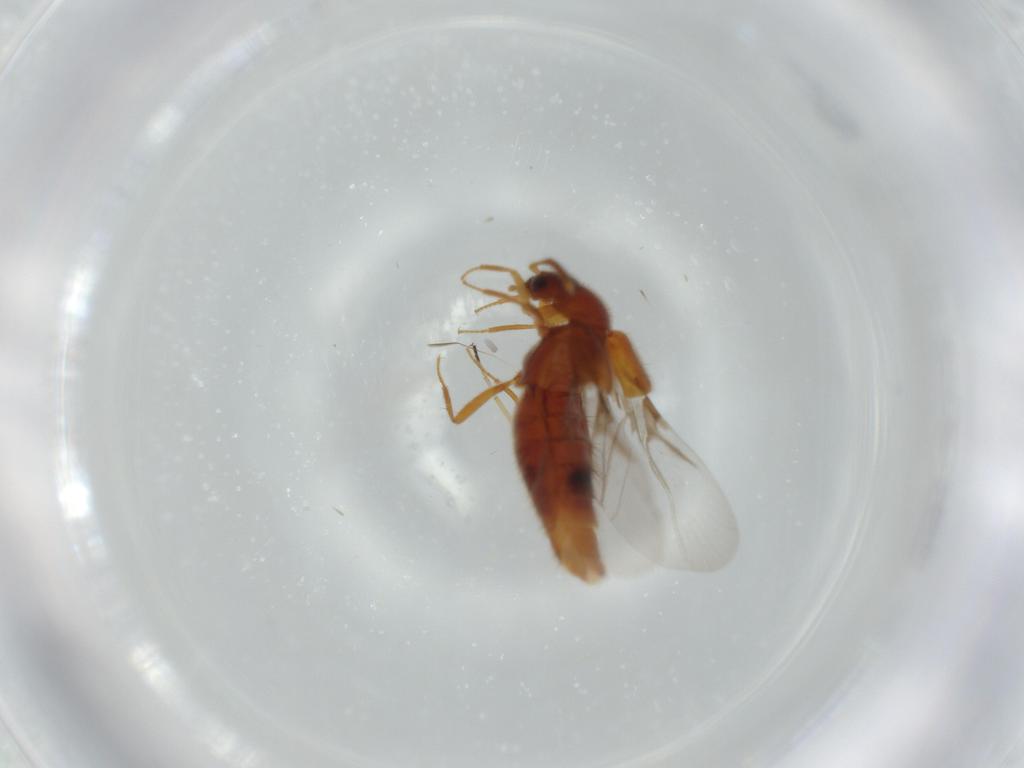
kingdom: Animalia
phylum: Arthropoda
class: Insecta
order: Coleoptera
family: Staphylinidae
